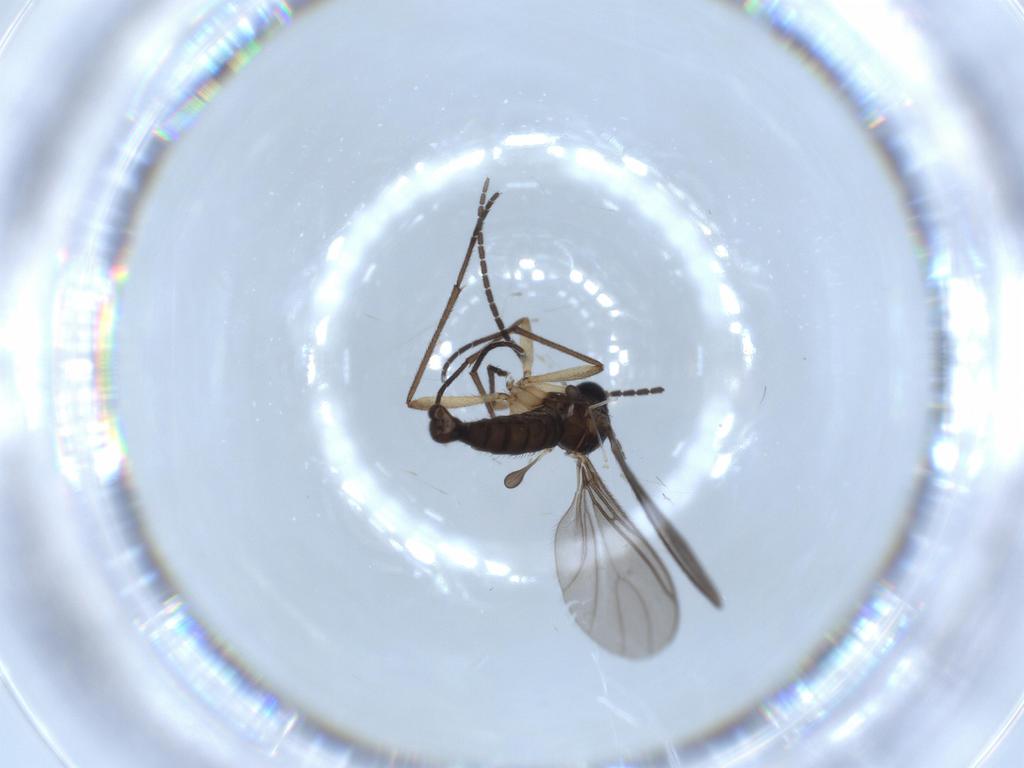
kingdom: Animalia
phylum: Arthropoda
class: Insecta
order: Diptera
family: Sciaridae
